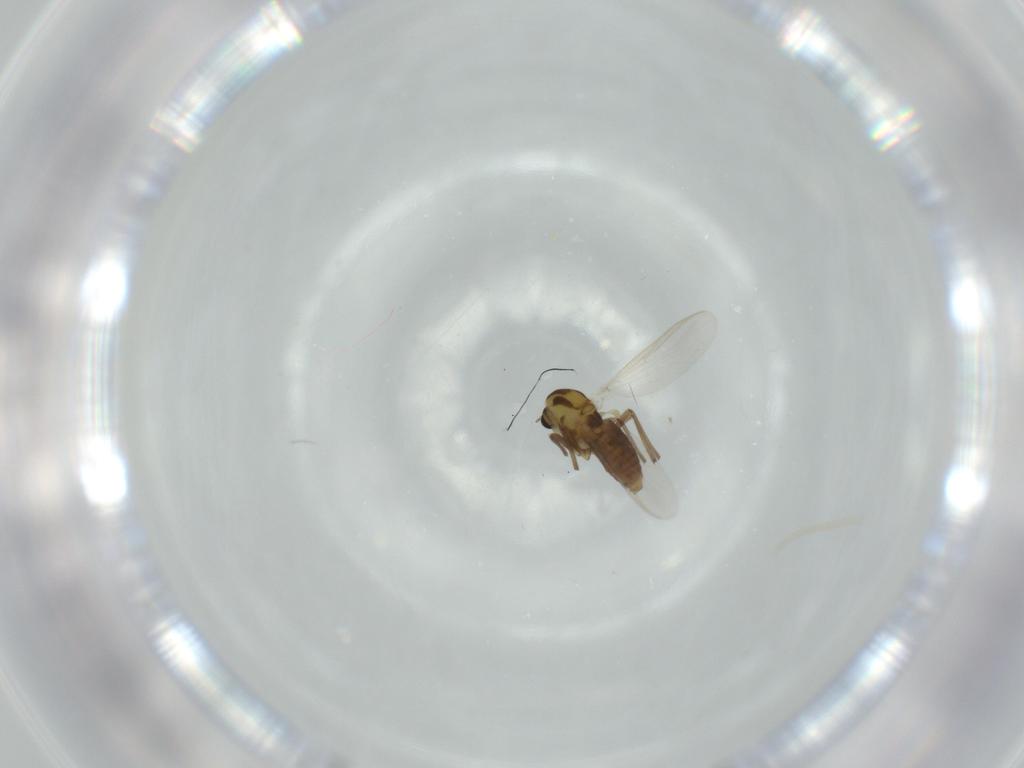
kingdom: Animalia
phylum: Arthropoda
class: Insecta
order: Diptera
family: Chironomidae
